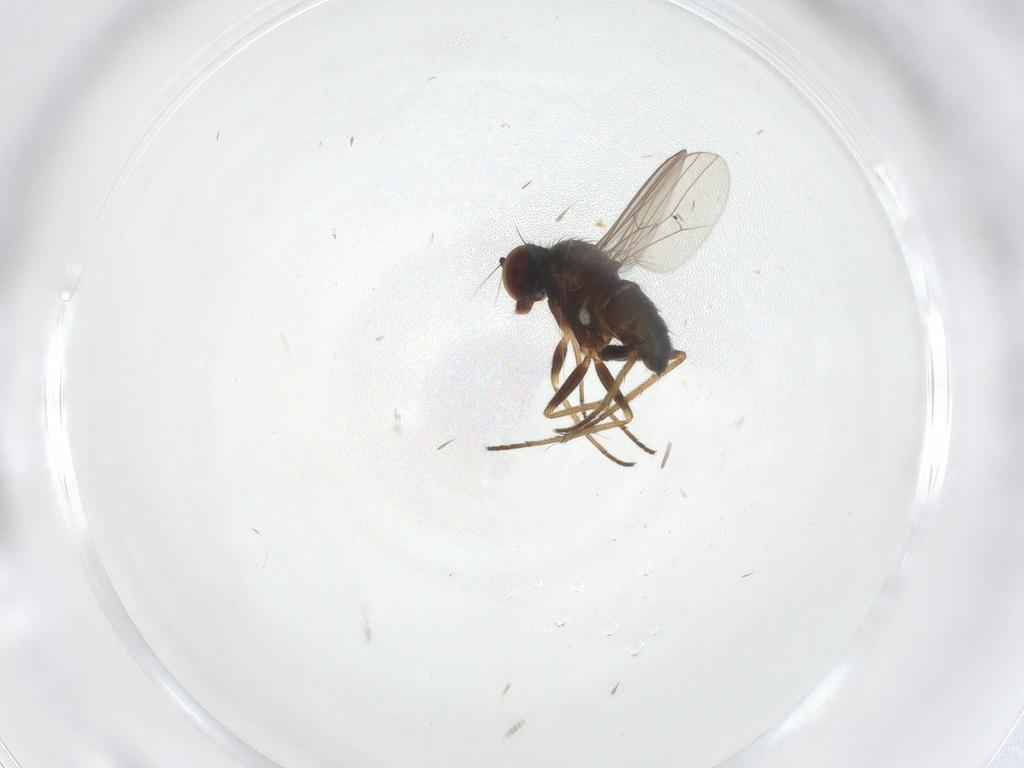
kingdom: Animalia
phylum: Arthropoda
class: Insecta
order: Diptera
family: Dolichopodidae
